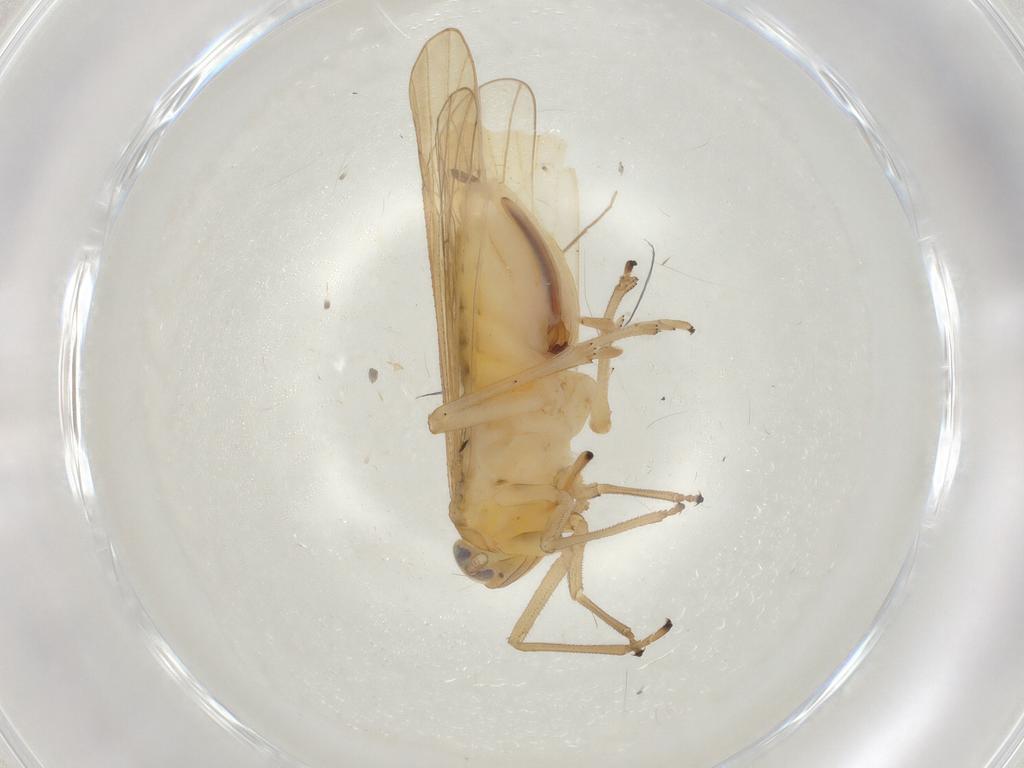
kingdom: Animalia
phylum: Arthropoda
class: Insecta
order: Hemiptera
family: Delphacidae
